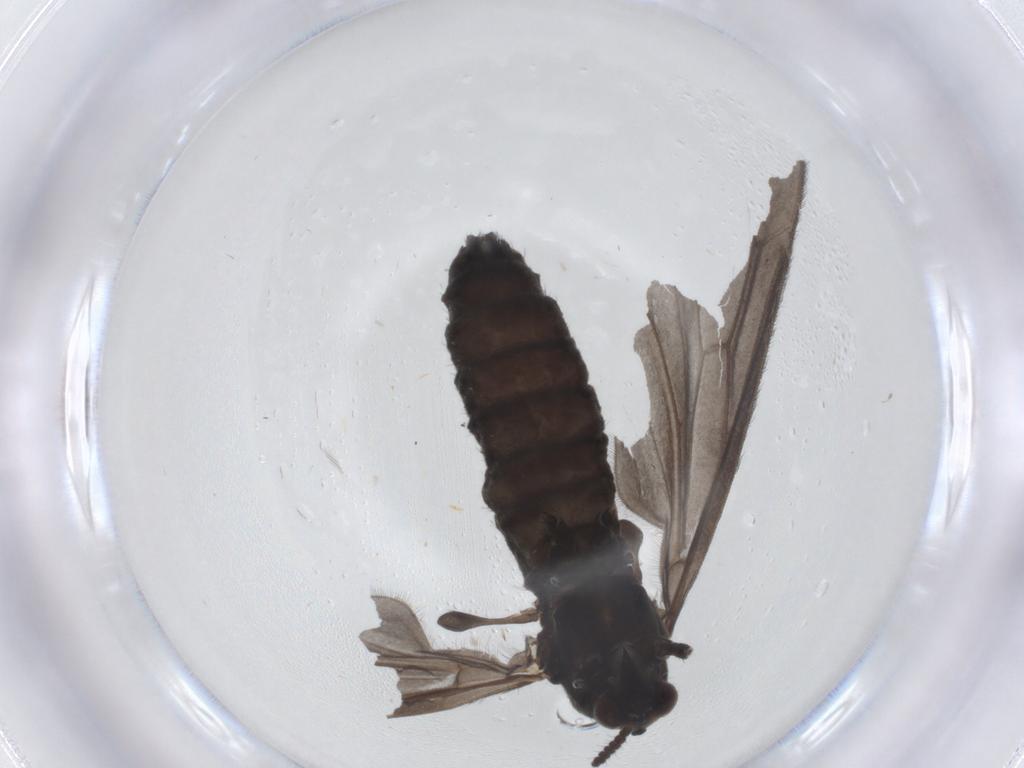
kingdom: Animalia
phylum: Arthropoda
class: Insecta
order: Diptera
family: Bibionidae
